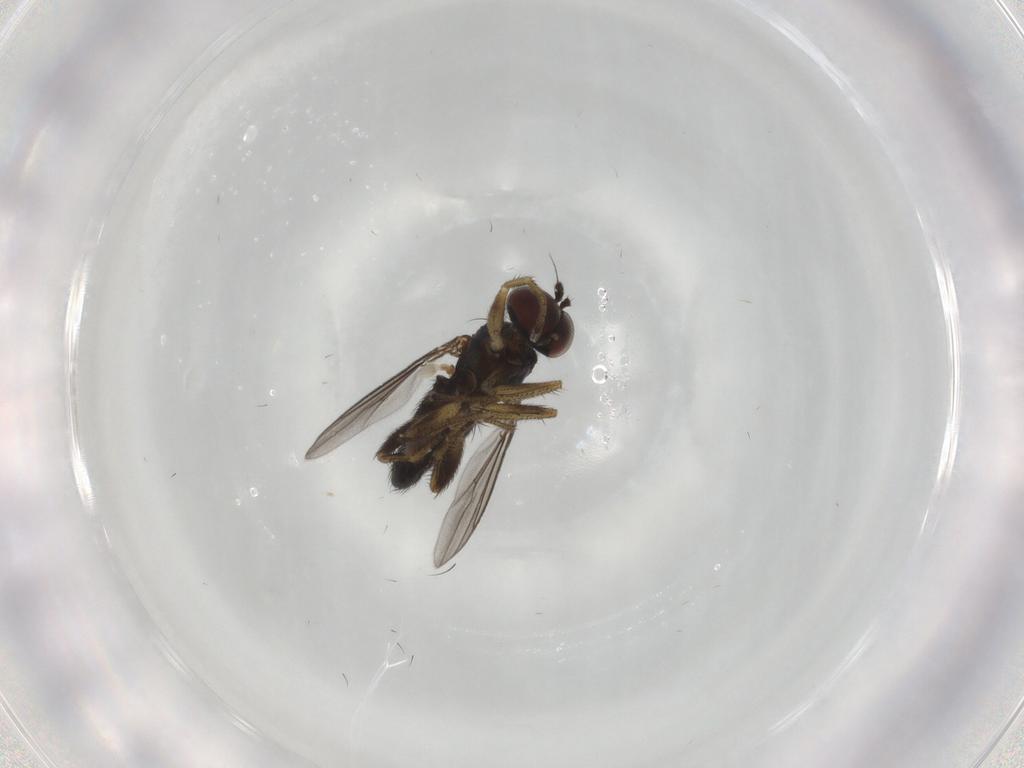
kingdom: Animalia
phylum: Arthropoda
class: Insecta
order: Diptera
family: Dolichopodidae
